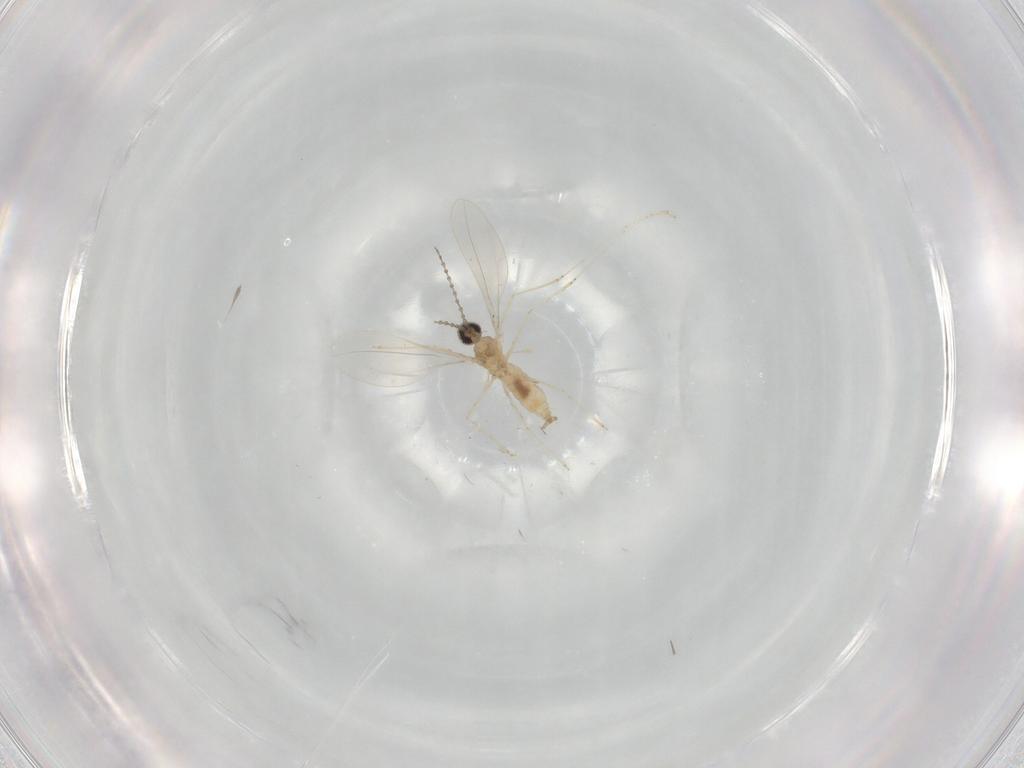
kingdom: Animalia
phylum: Arthropoda
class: Insecta
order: Diptera
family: Cecidomyiidae
